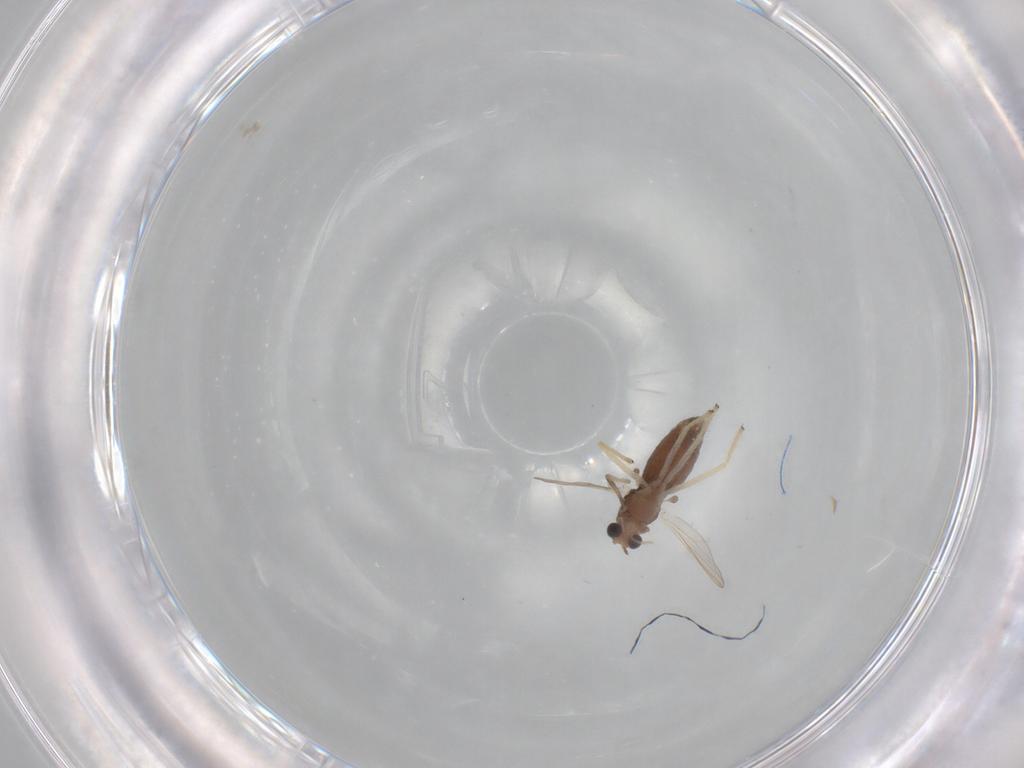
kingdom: Animalia
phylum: Arthropoda
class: Insecta
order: Diptera
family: Chironomidae
